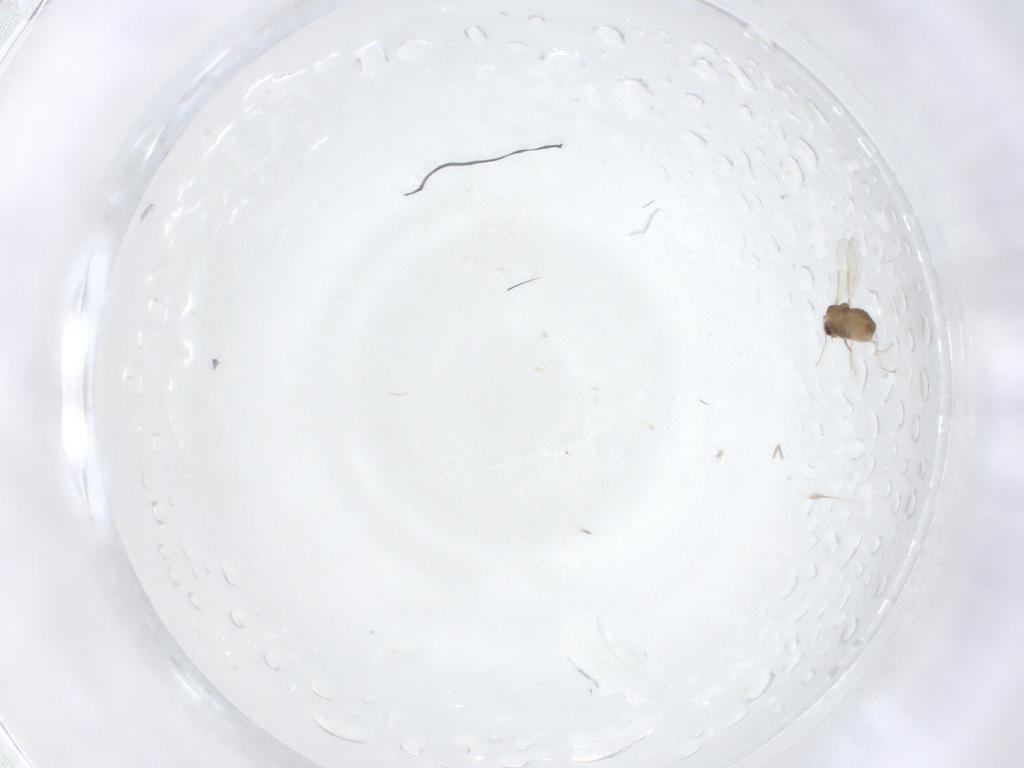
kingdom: Animalia
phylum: Arthropoda
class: Insecta
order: Diptera
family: Chironomidae
